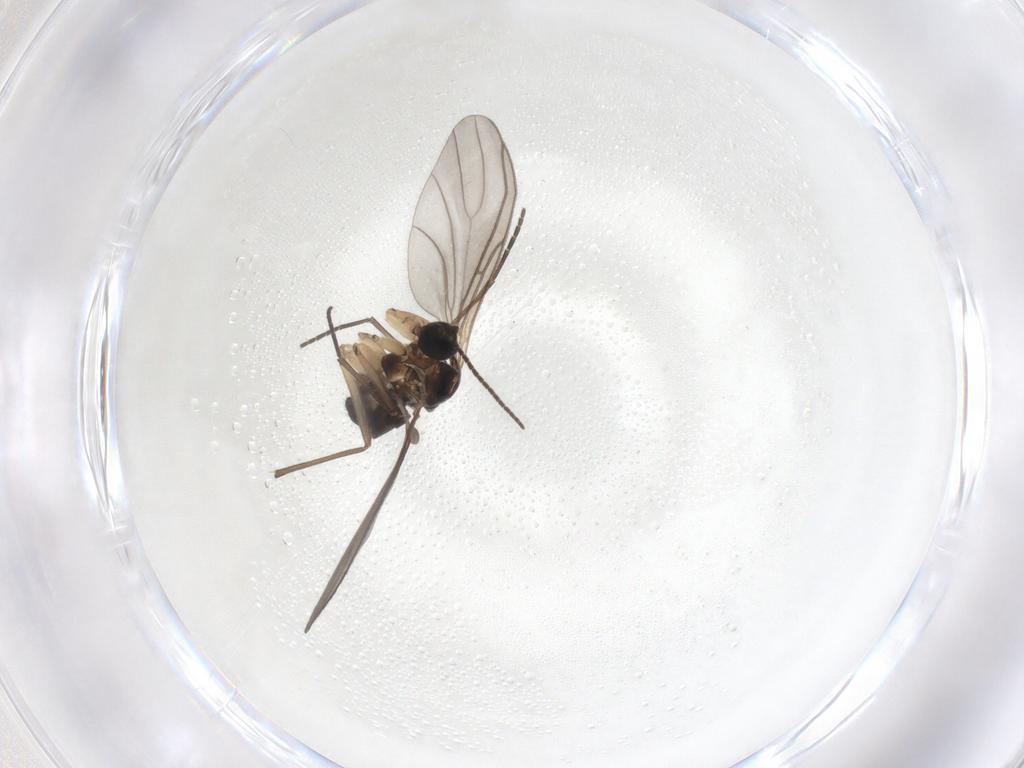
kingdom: Animalia
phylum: Arthropoda
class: Insecta
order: Diptera
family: Sciaridae
